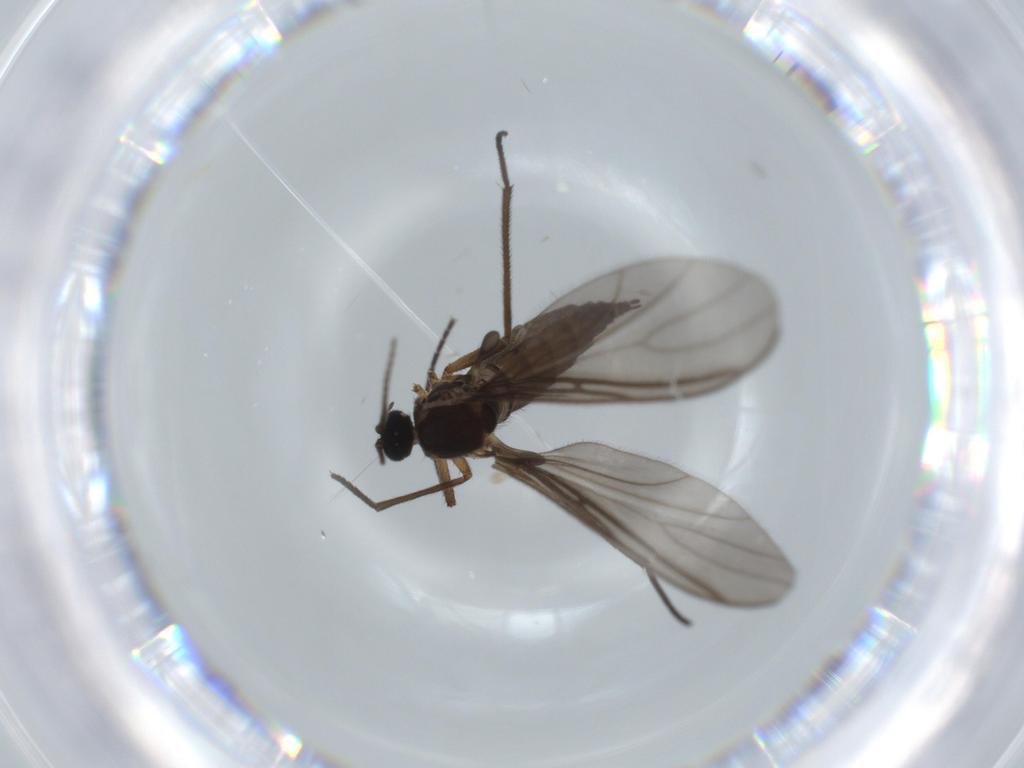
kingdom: Animalia
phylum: Arthropoda
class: Insecta
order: Diptera
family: Sciaridae
